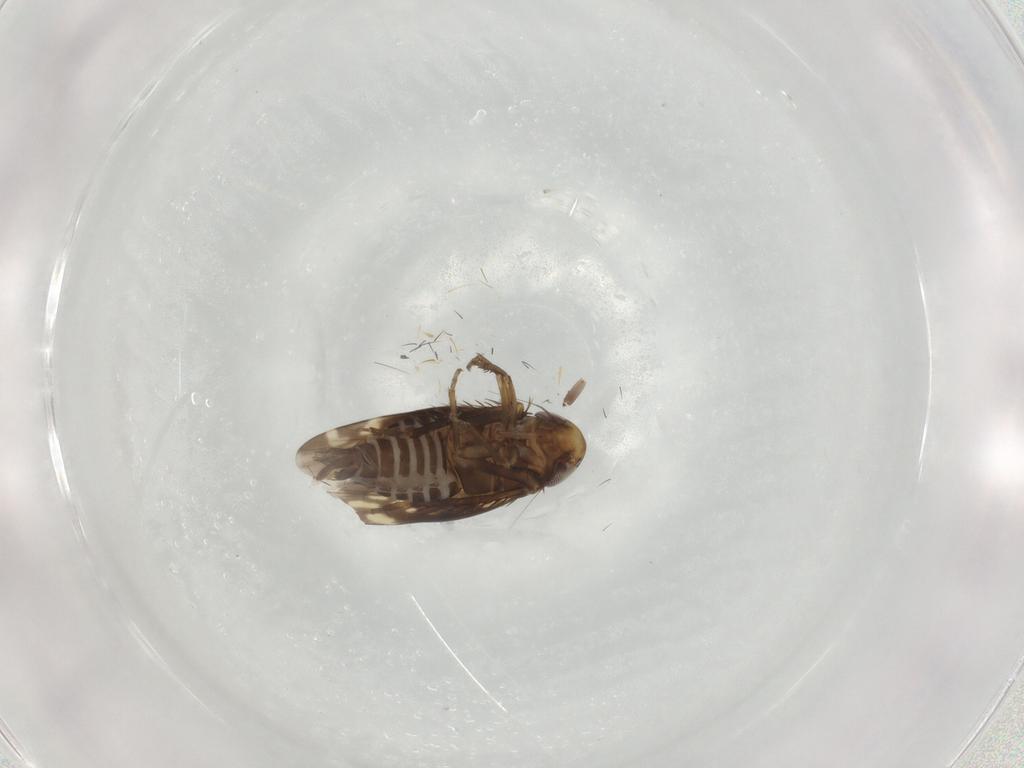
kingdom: Animalia
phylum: Arthropoda
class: Insecta
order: Hemiptera
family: Cicadellidae
